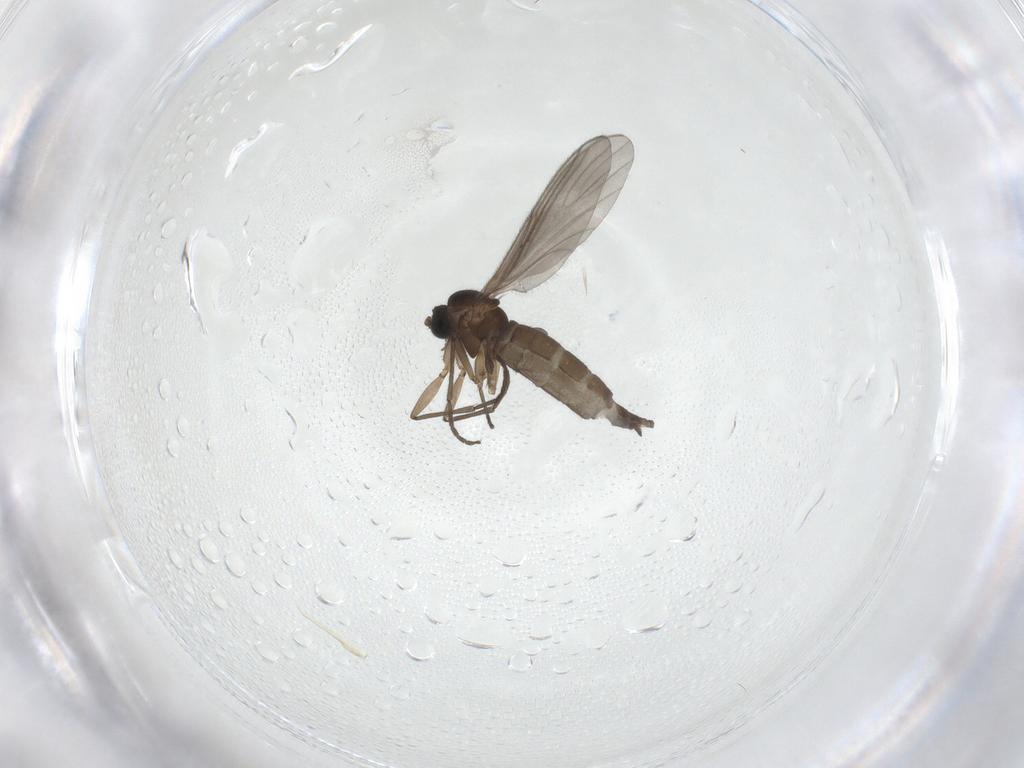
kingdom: Animalia
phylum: Arthropoda
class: Insecta
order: Diptera
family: Sciaridae
